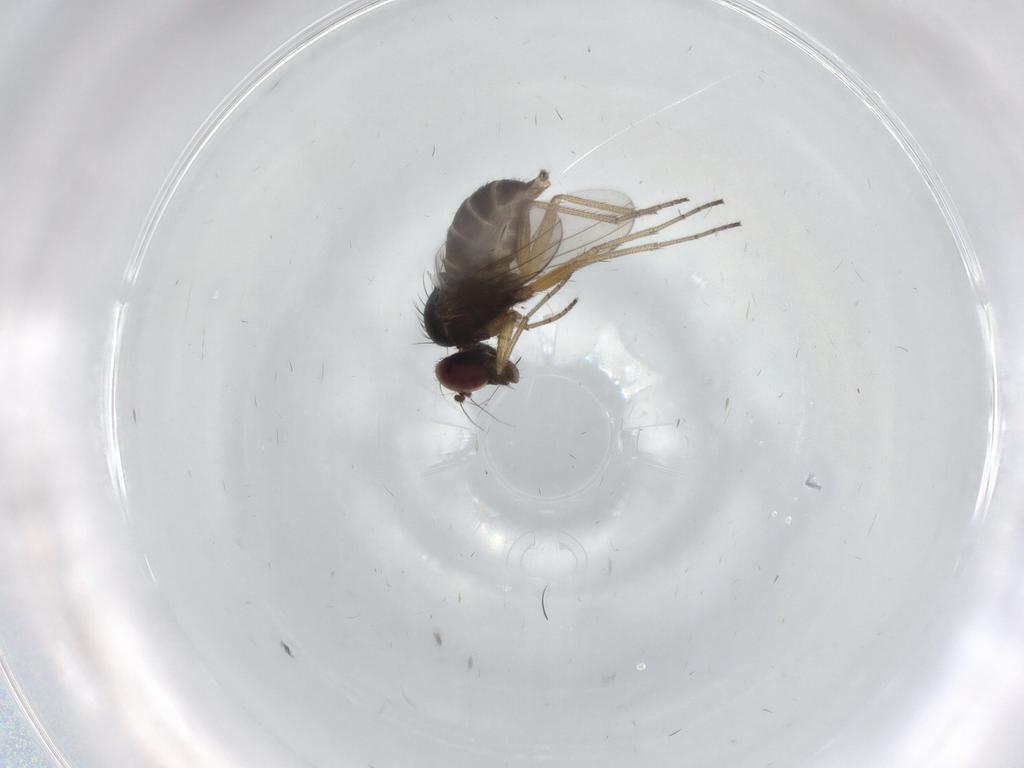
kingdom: Animalia
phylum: Arthropoda
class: Insecta
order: Diptera
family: Dolichopodidae
